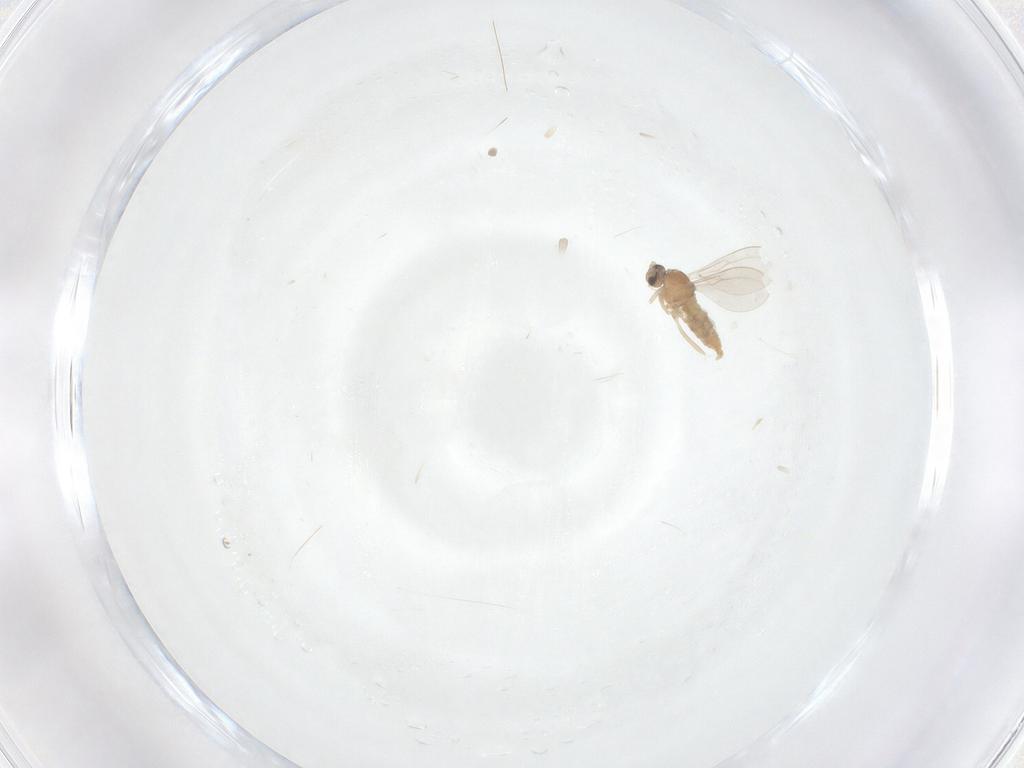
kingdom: Animalia
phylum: Arthropoda
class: Insecta
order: Diptera
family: Cecidomyiidae
